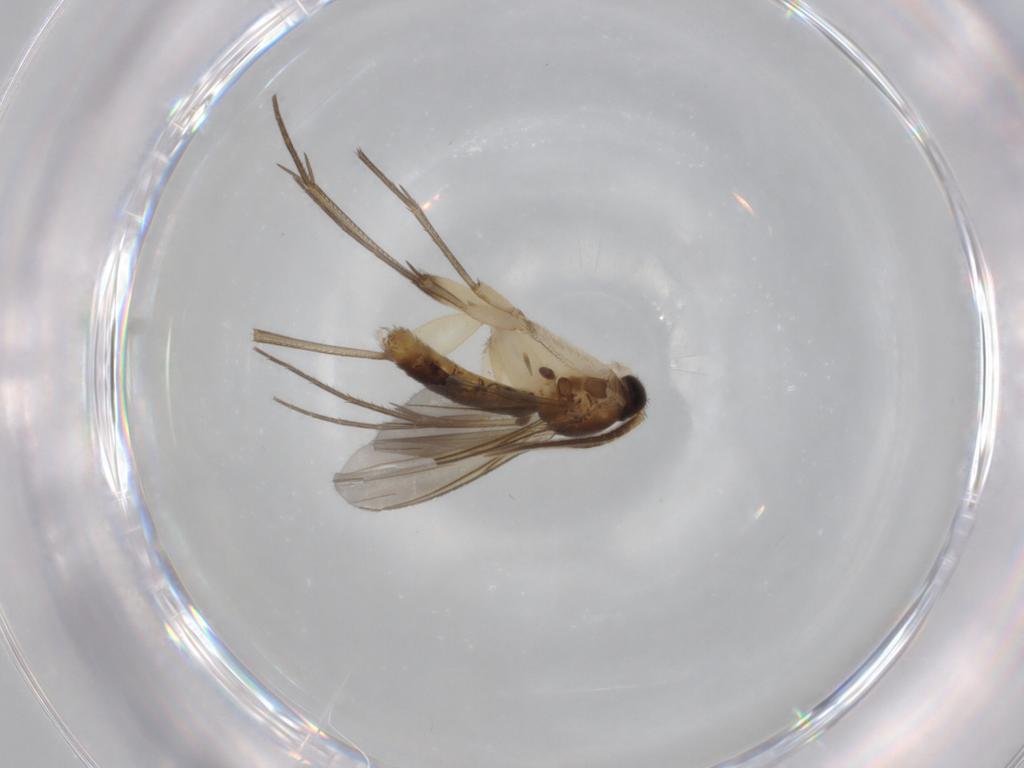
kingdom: Animalia
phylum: Arthropoda
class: Insecta
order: Diptera
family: Mycetophilidae
